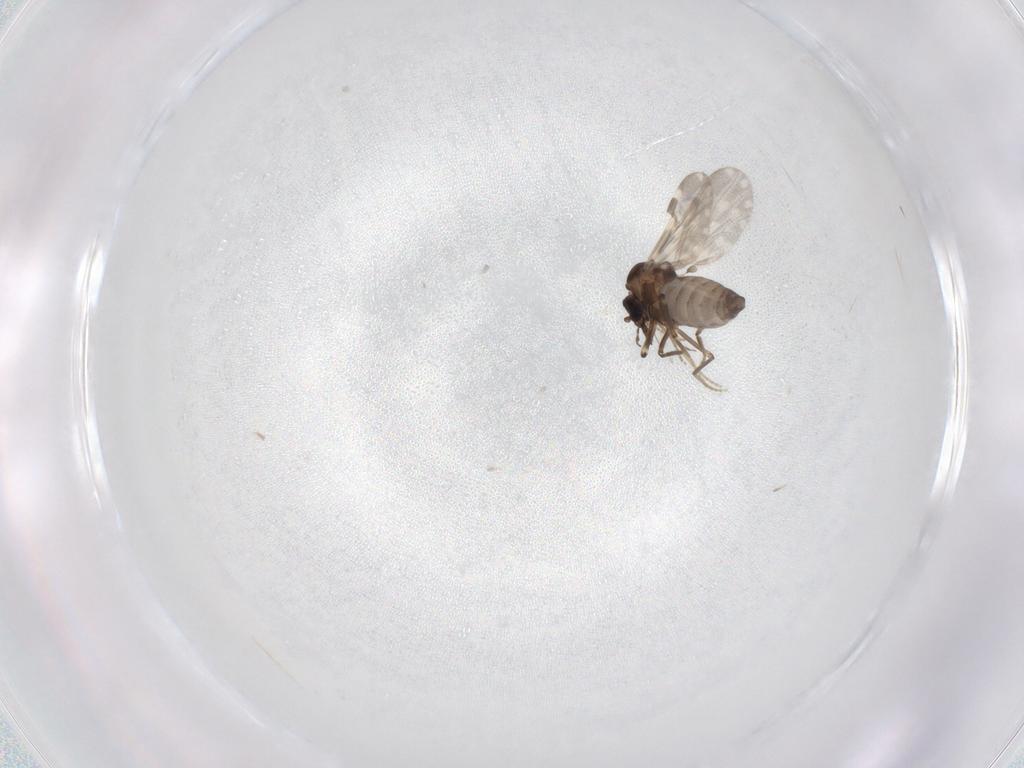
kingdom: Animalia
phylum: Arthropoda
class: Insecta
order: Diptera
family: Ceratopogonidae
